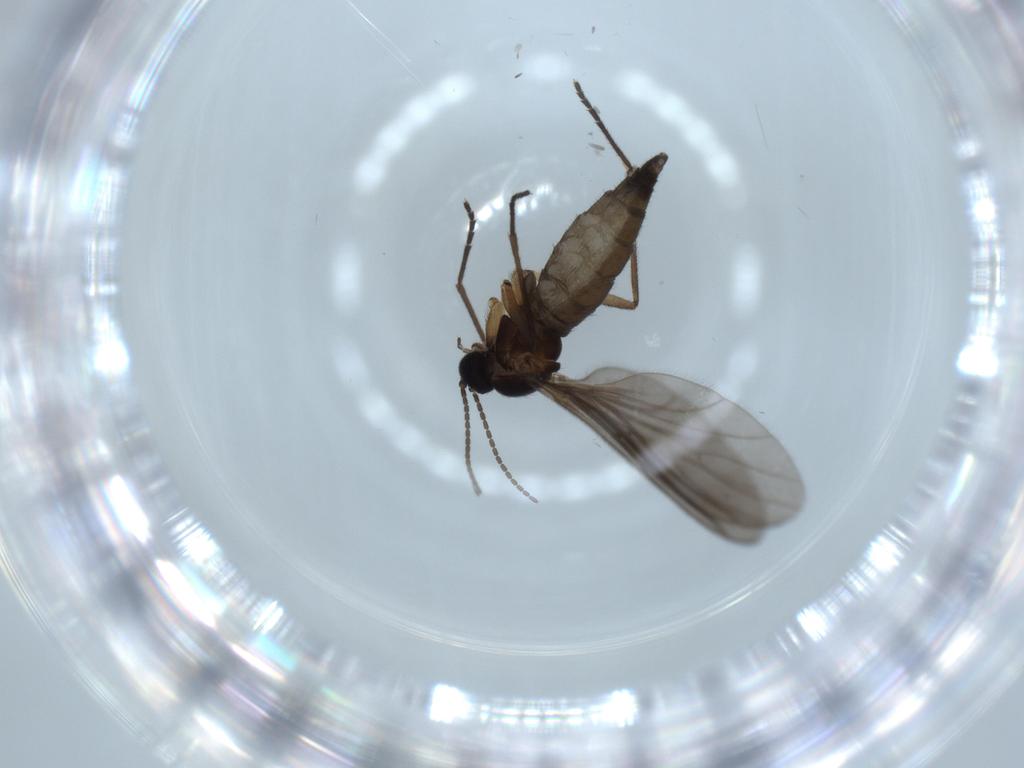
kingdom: Animalia
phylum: Arthropoda
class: Insecta
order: Diptera
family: Sciaridae
